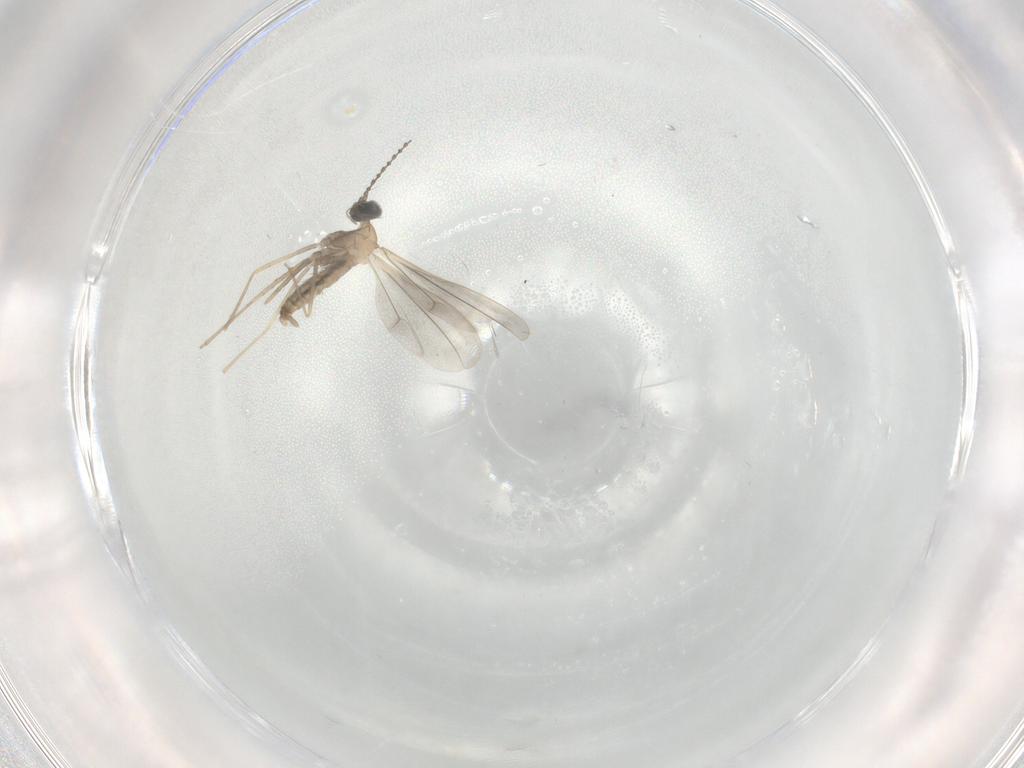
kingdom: Animalia
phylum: Arthropoda
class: Insecta
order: Diptera
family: Cecidomyiidae
